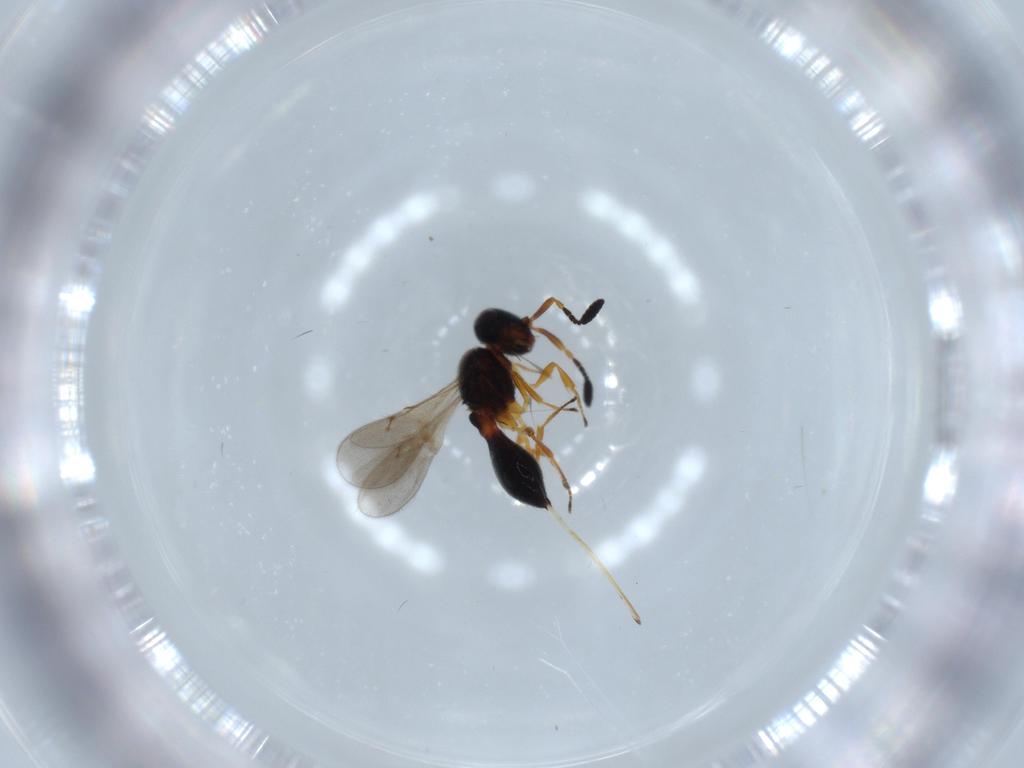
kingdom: Animalia
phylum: Arthropoda
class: Insecta
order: Hymenoptera
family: Scelionidae
